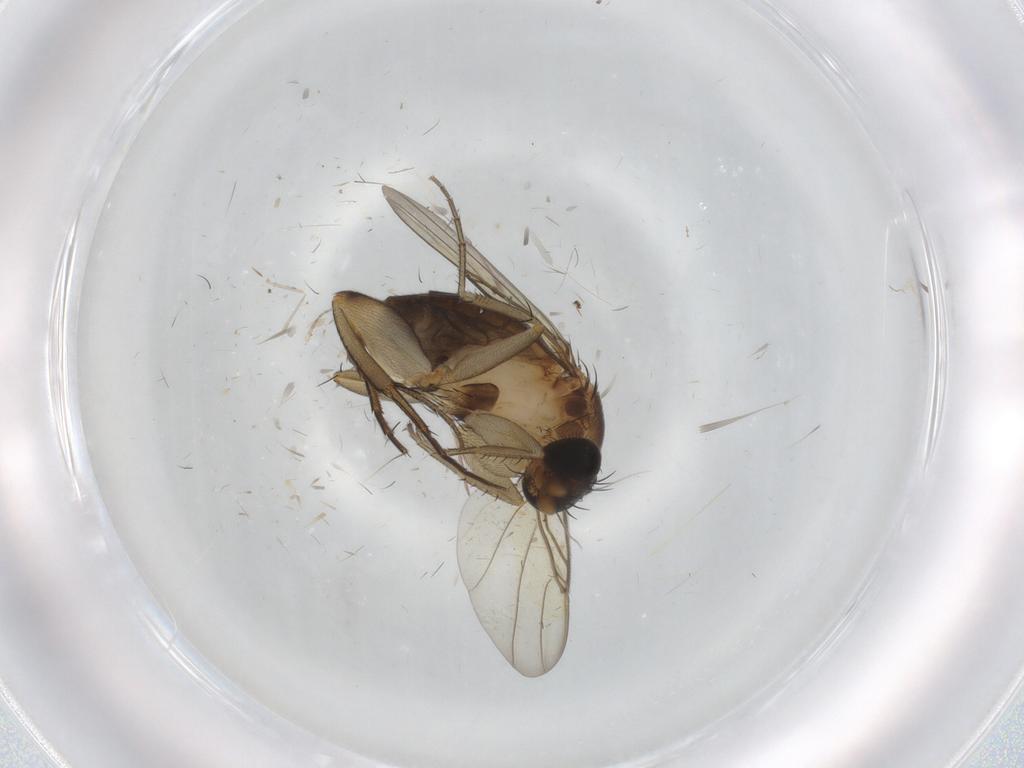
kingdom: Animalia
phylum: Arthropoda
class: Insecta
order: Diptera
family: Phoridae
